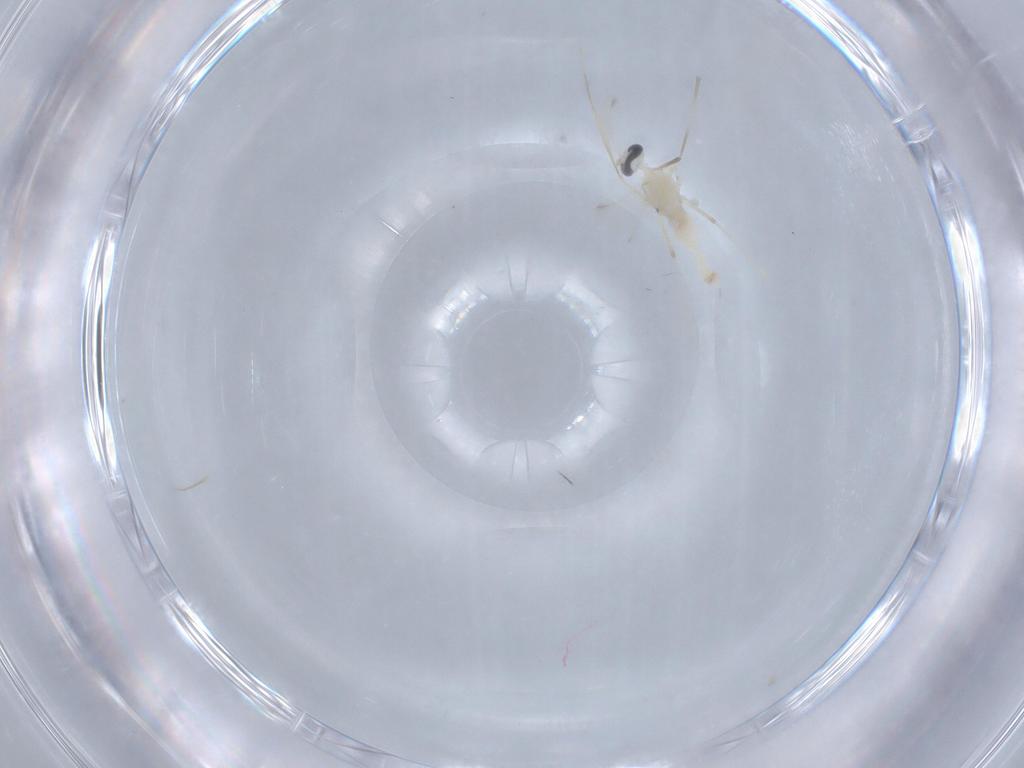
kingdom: Animalia
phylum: Arthropoda
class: Insecta
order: Diptera
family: Cecidomyiidae
